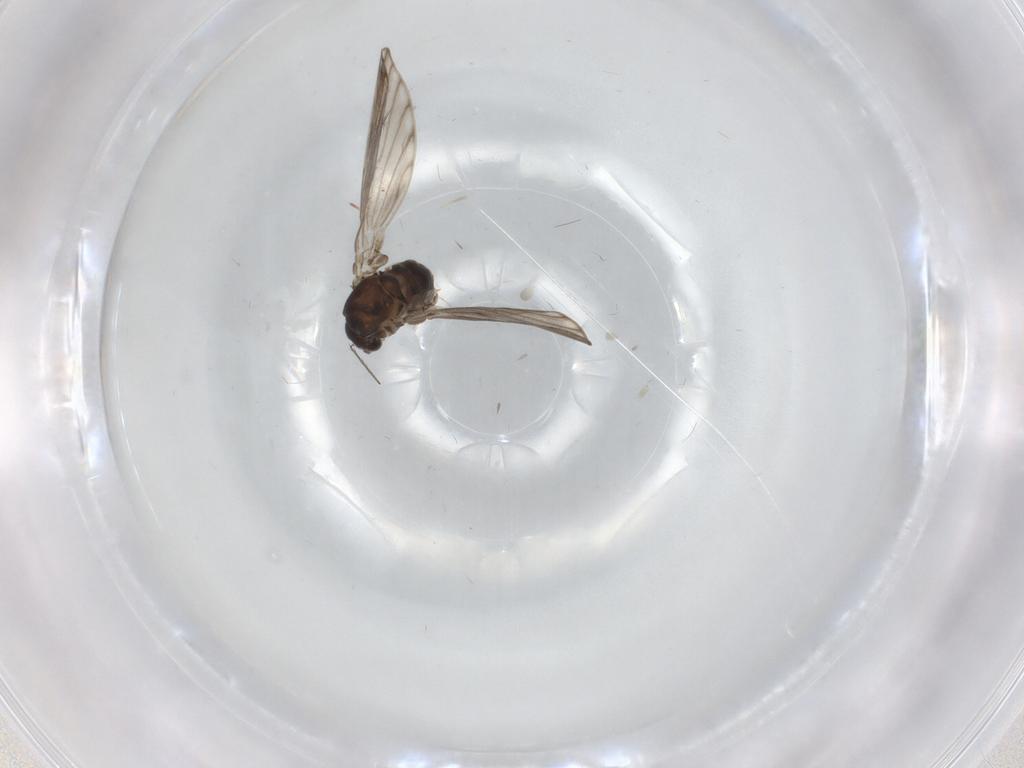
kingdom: Animalia
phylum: Arthropoda
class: Insecta
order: Diptera
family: Psychodidae
